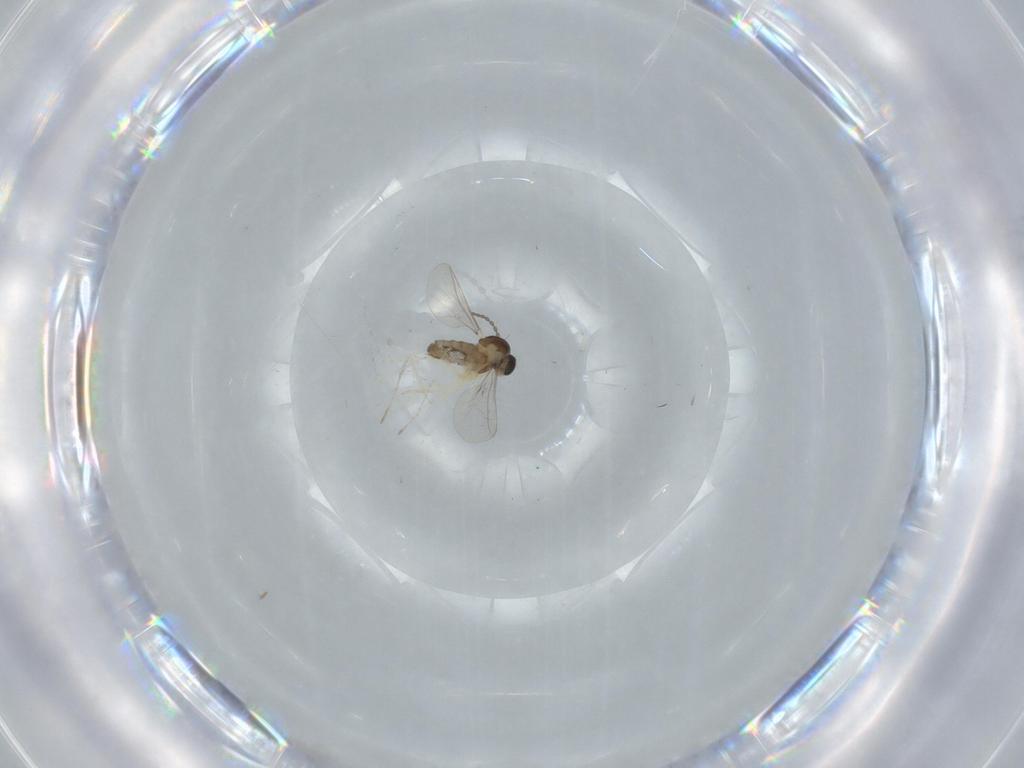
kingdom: Animalia
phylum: Arthropoda
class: Insecta
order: Diptera
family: Cecidomyiidae
